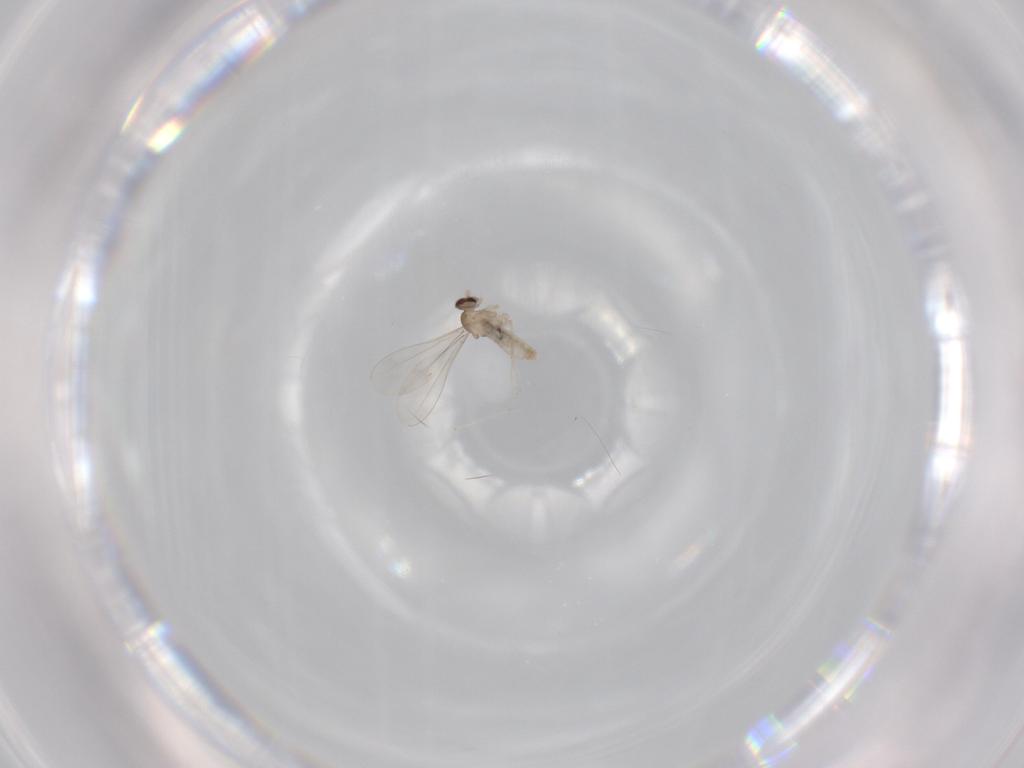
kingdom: Animalia
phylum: Arthropoda
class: Insecta
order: Diptera
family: Cecidomyiidae
